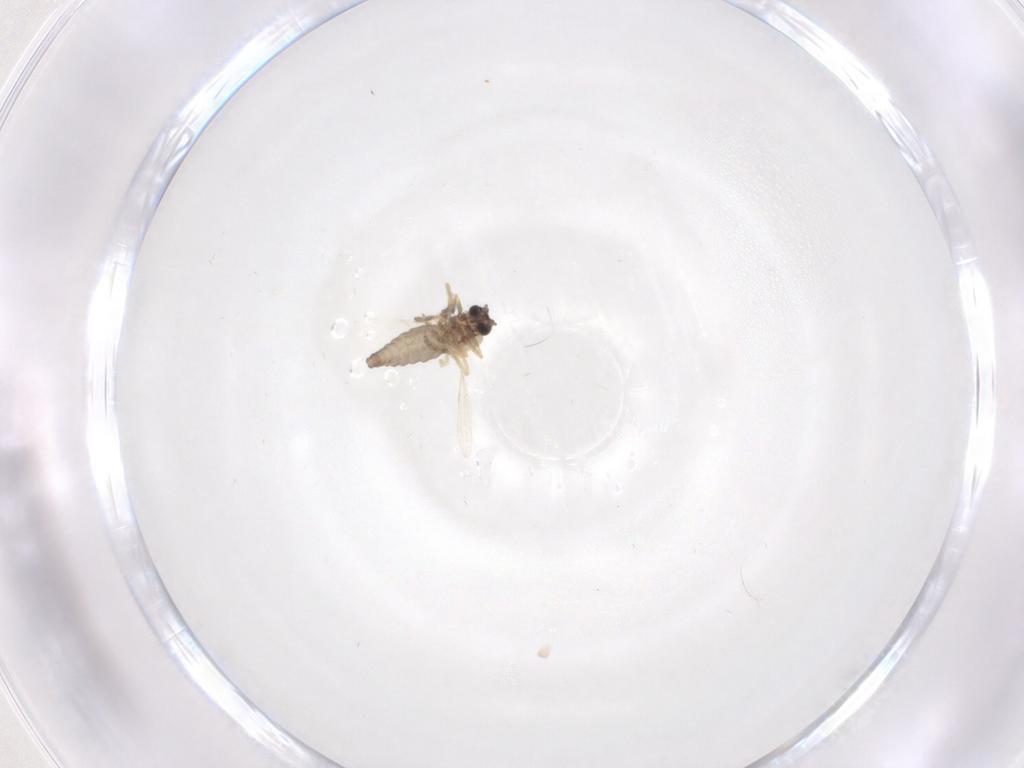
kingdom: Animalia
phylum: Arthropoda
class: Insecta
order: Diptera
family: Ceratopogonidae
